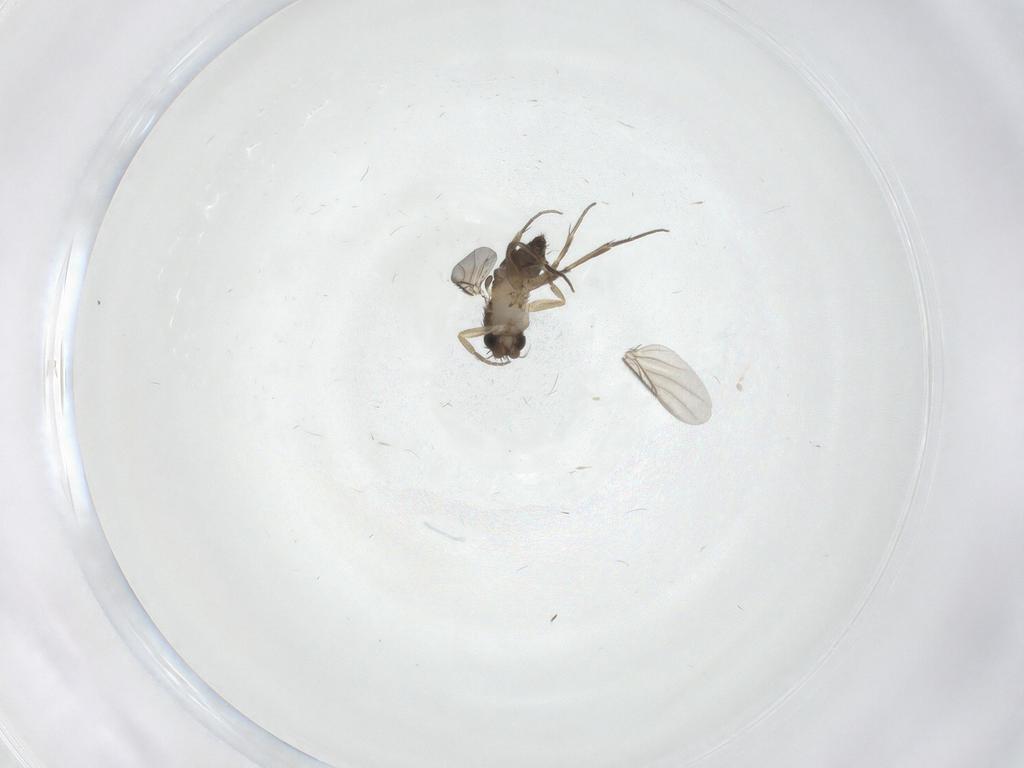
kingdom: Animalia
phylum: Arthropoda
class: Insecta
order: Diptera
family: Phoridae
